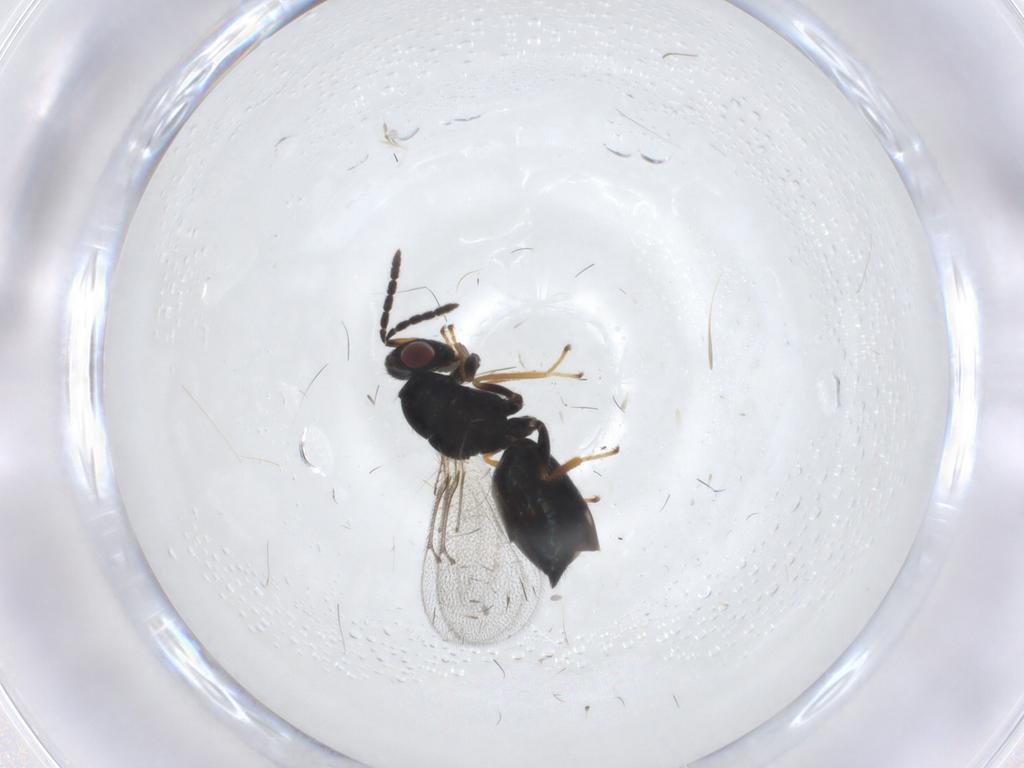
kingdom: Animalia
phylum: Arthropoda
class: Insecta
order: Hymenoptera
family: Eulophidae
